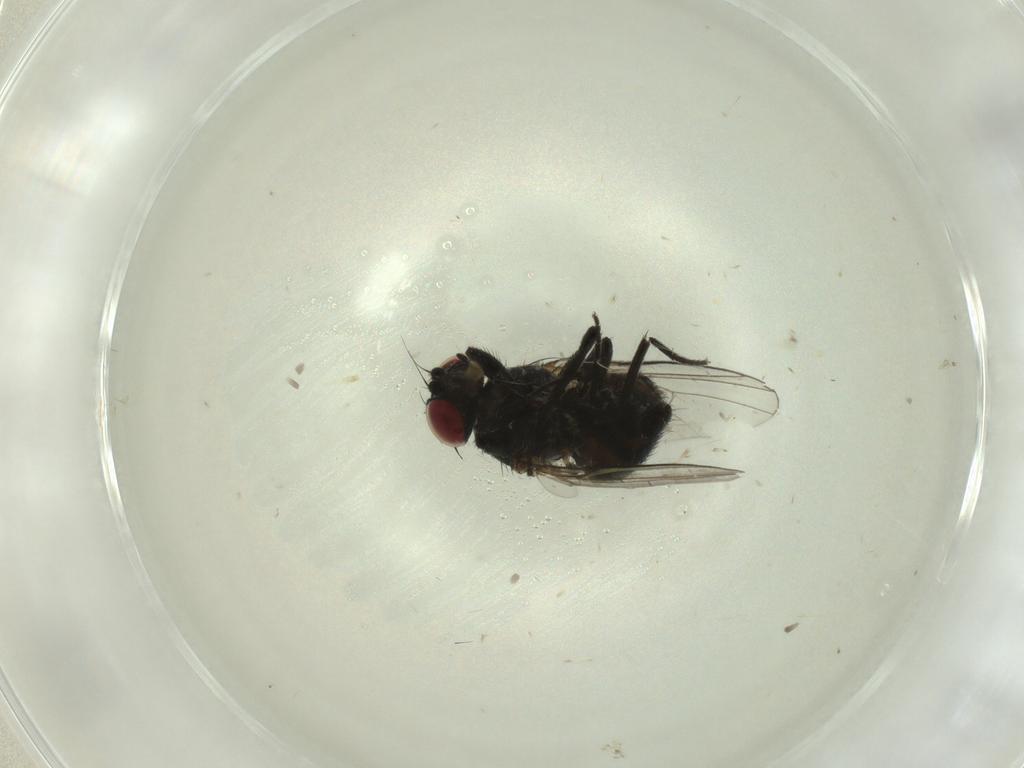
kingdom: Animalia
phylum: Arthropoda
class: Insecta
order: Diptera
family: Agromyzidae
